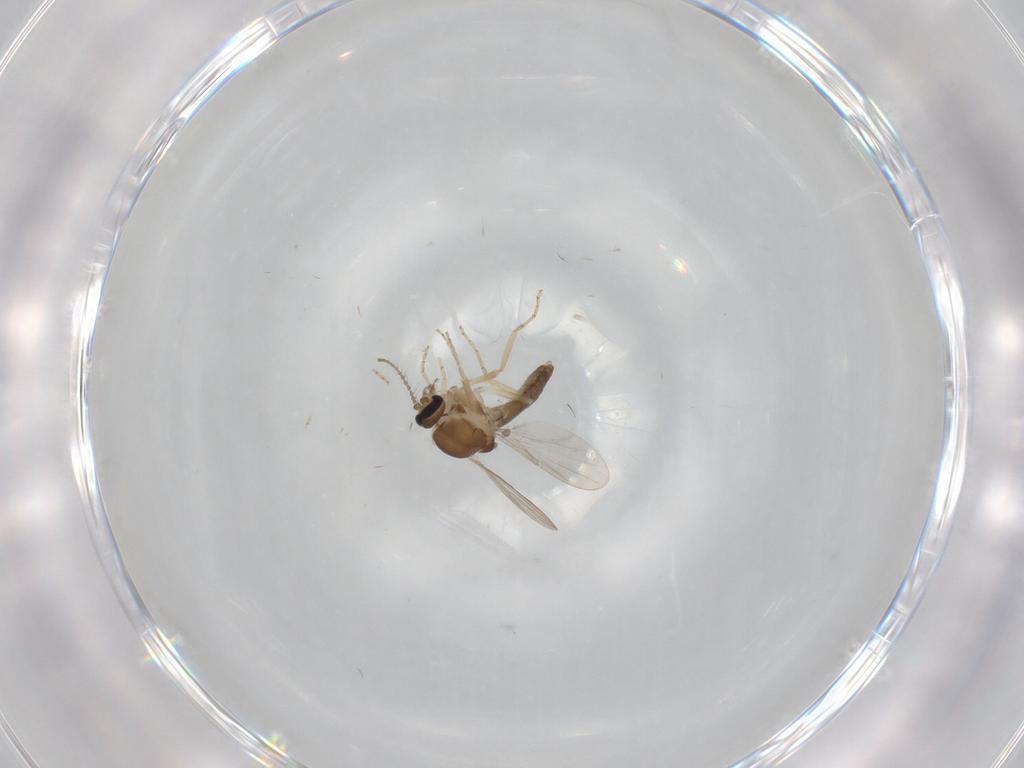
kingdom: Animalia
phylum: Arthropoda
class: Insecta
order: Diptera
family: Ceratopogonidae
